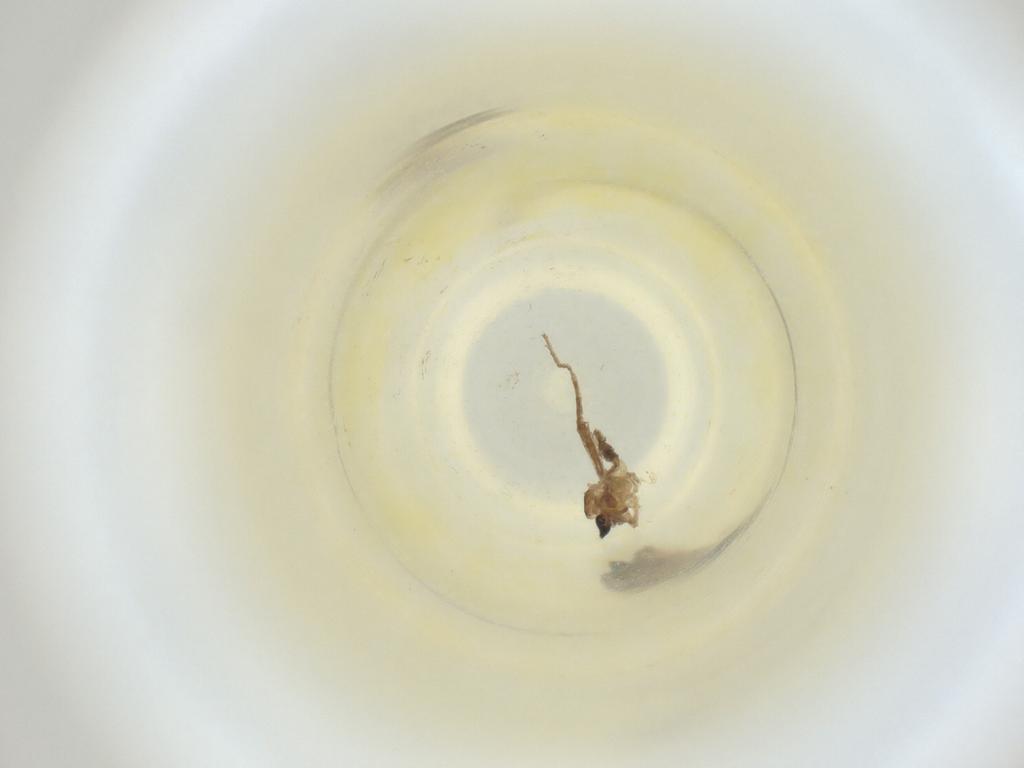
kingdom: Animalia
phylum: Arthropoda
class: Insecta
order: Diptera
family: Cecidomyiidae
